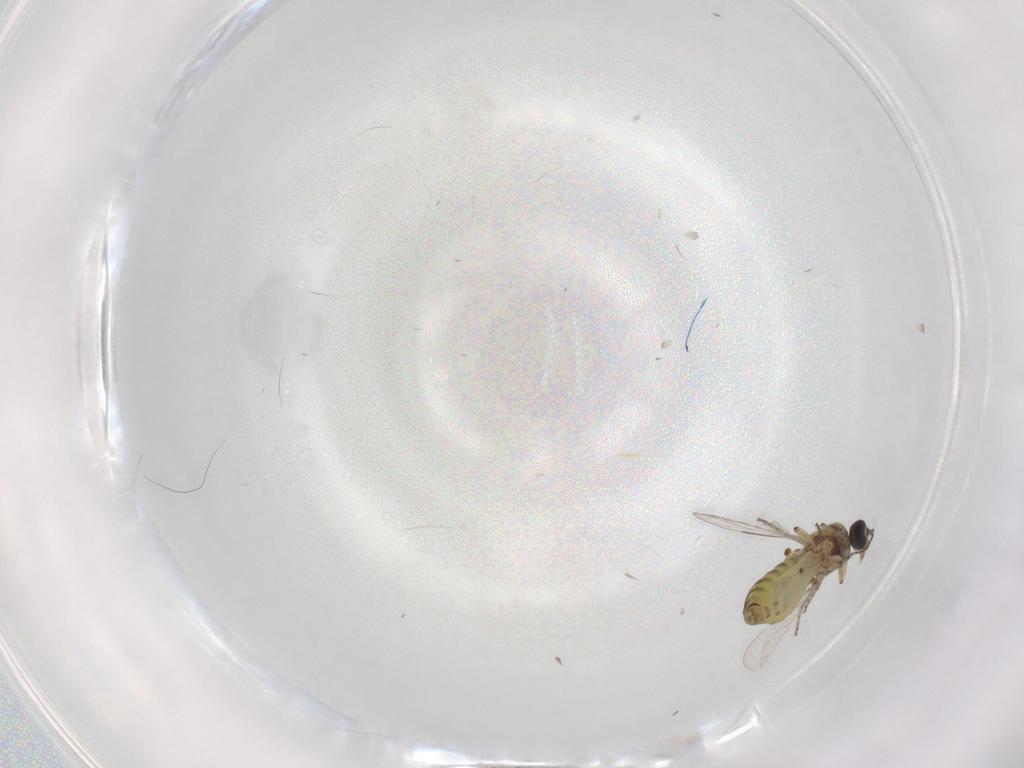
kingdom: Animalia
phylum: Arthropoda
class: Insecta
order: Diptera
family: Ceratopogonidae
